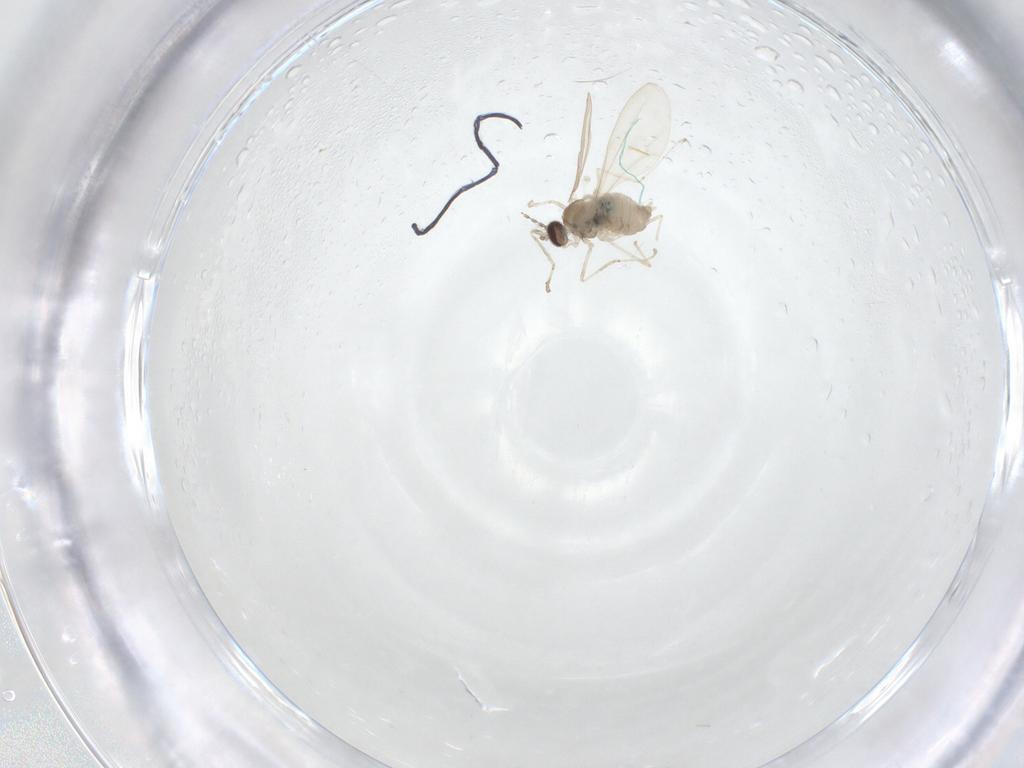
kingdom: Animalia
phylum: Arthropoda
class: Insecta
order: Diptera
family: Cecidomyiidae
